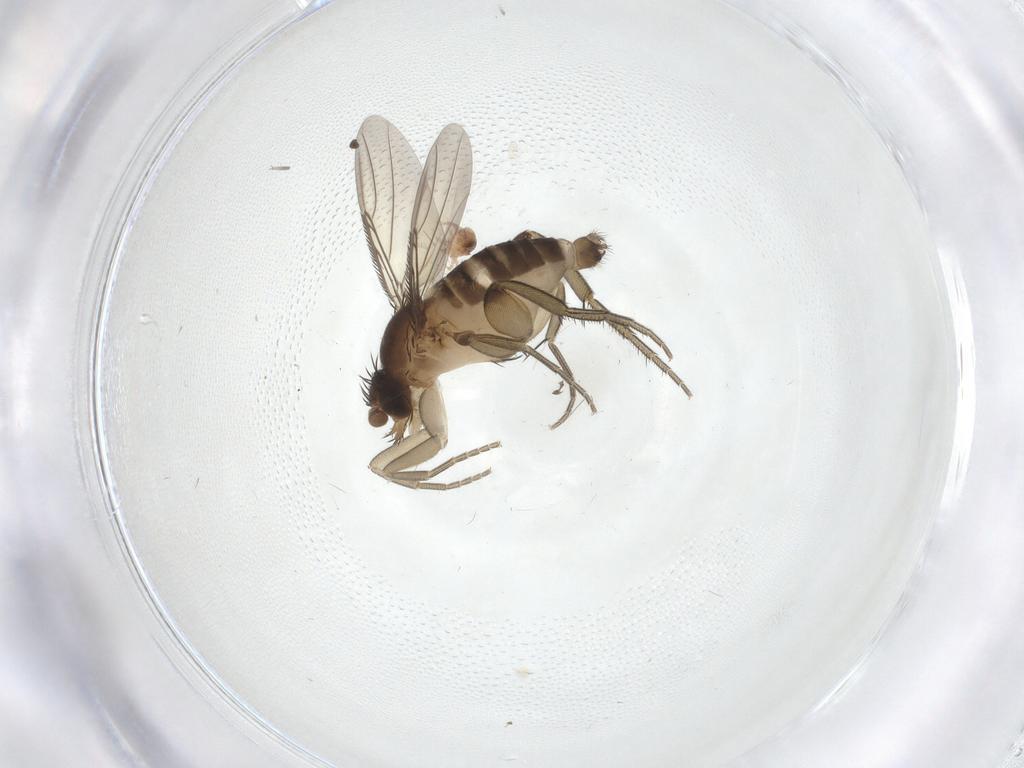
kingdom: Animalia
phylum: Arthropoda
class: Insecta
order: Diptera
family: Phoridae
